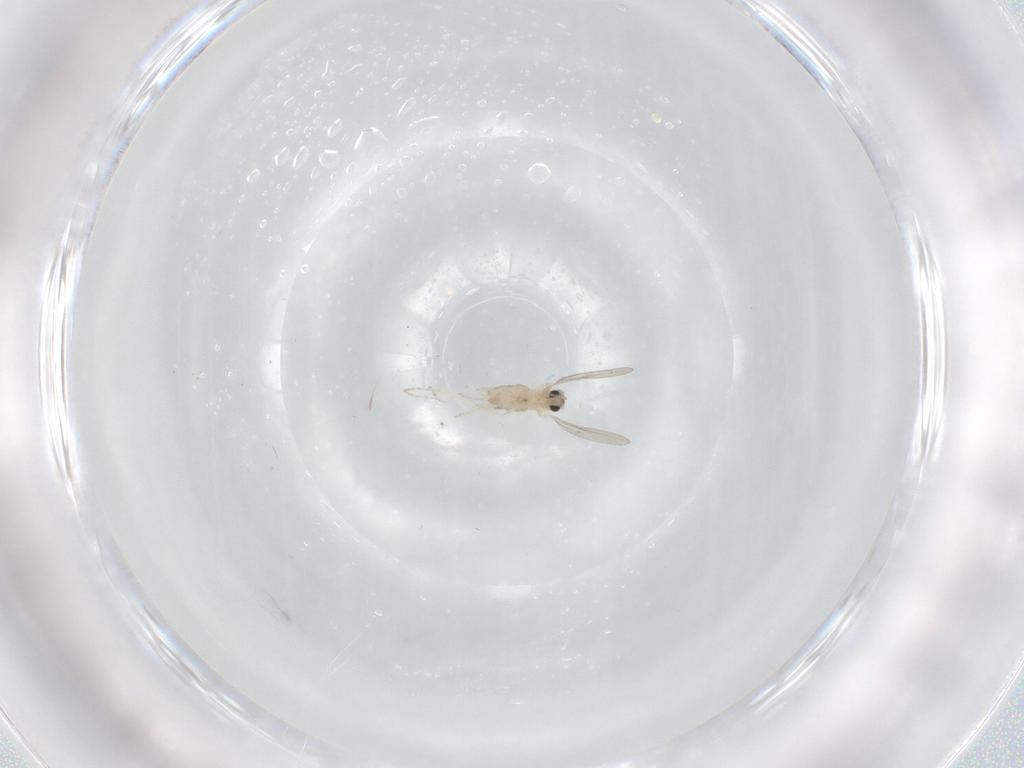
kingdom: Animalia
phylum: Arthropoda
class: Insecta
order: Diptera
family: Cecidomyiidae
